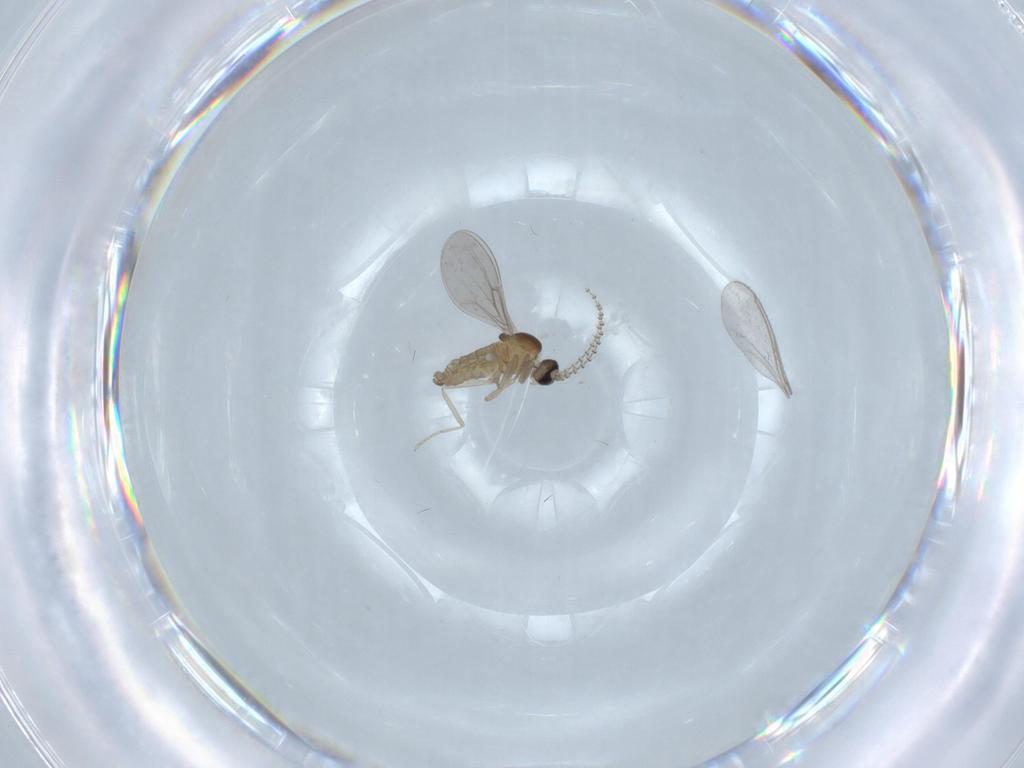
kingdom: Animalia
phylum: Arthropoda
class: Insecta
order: Diptera
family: Cecidomyiidae
